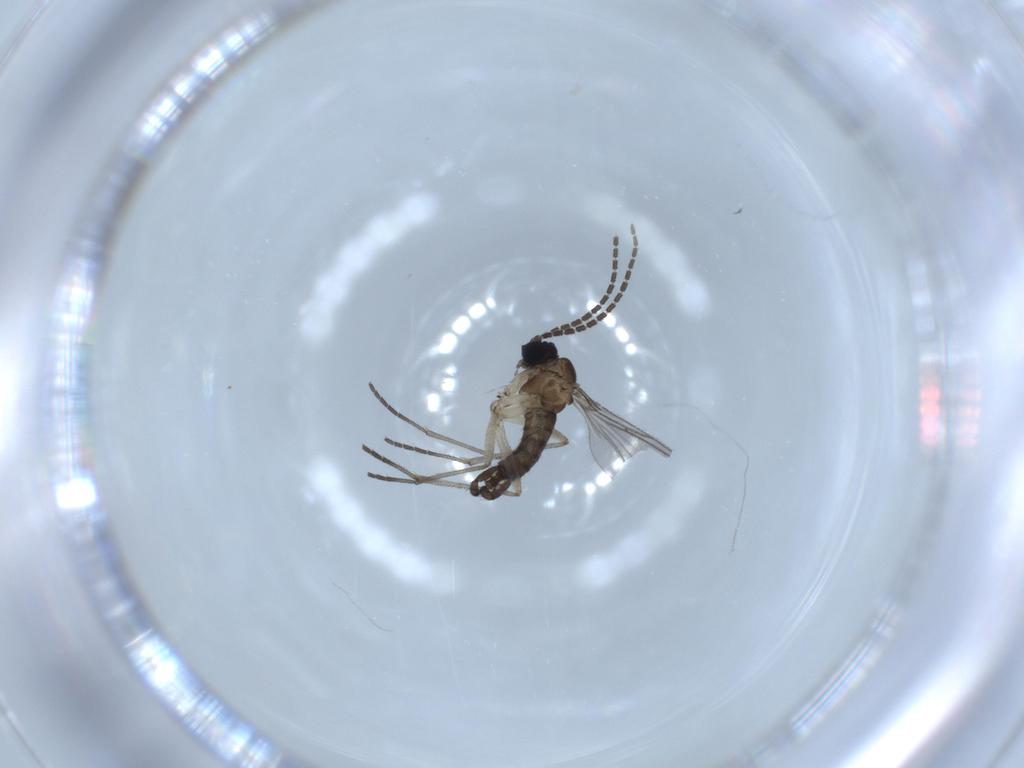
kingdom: Animalia
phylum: Arthropoda
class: Insecta
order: Diptera
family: Sciaridae
